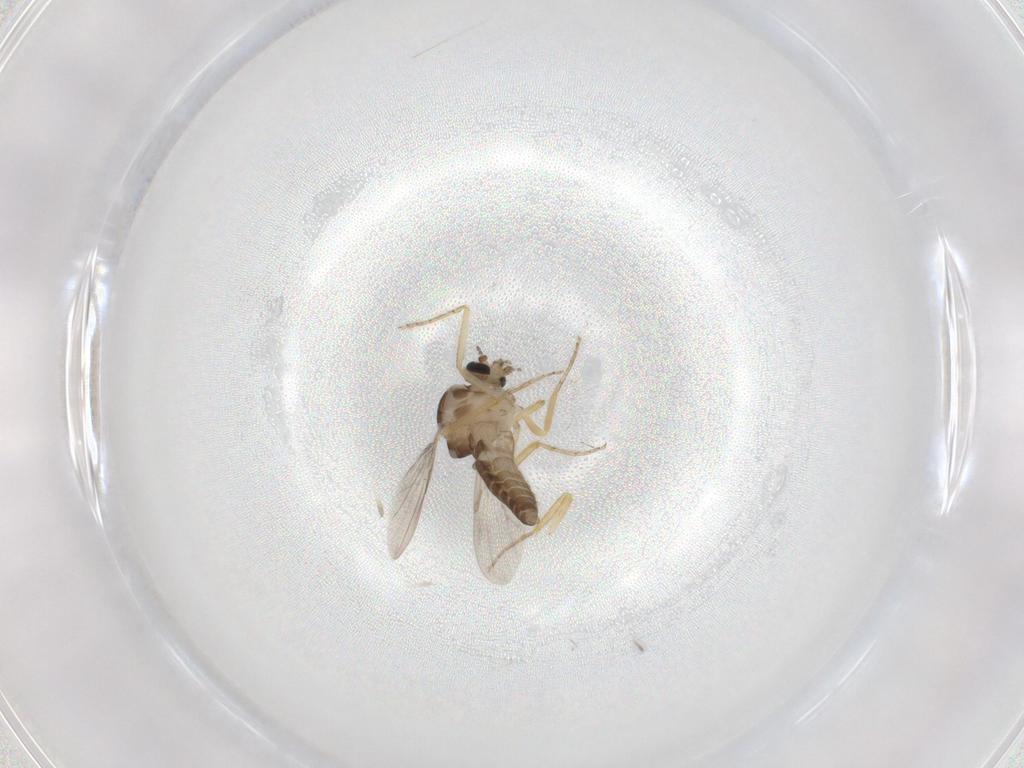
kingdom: Animalia
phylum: Arthropoda
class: Insecta
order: Diptera
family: Ceratopogonidae
